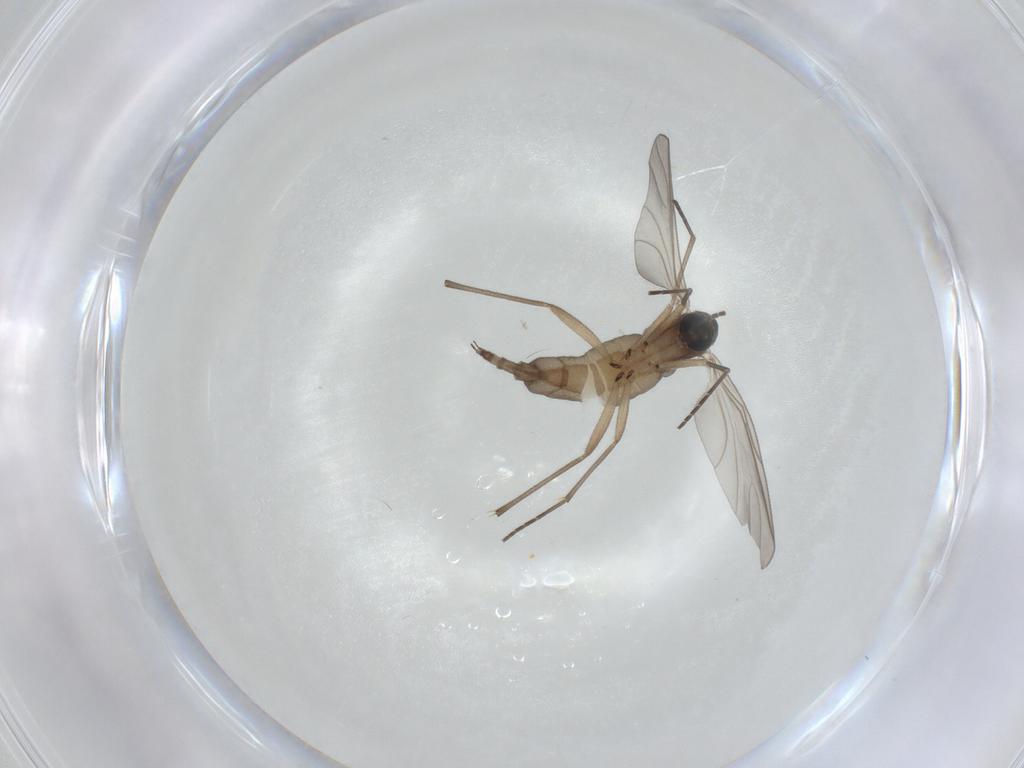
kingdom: Animalia
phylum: Arthropoda
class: Insecta
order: Diptera
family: Sciaridae
